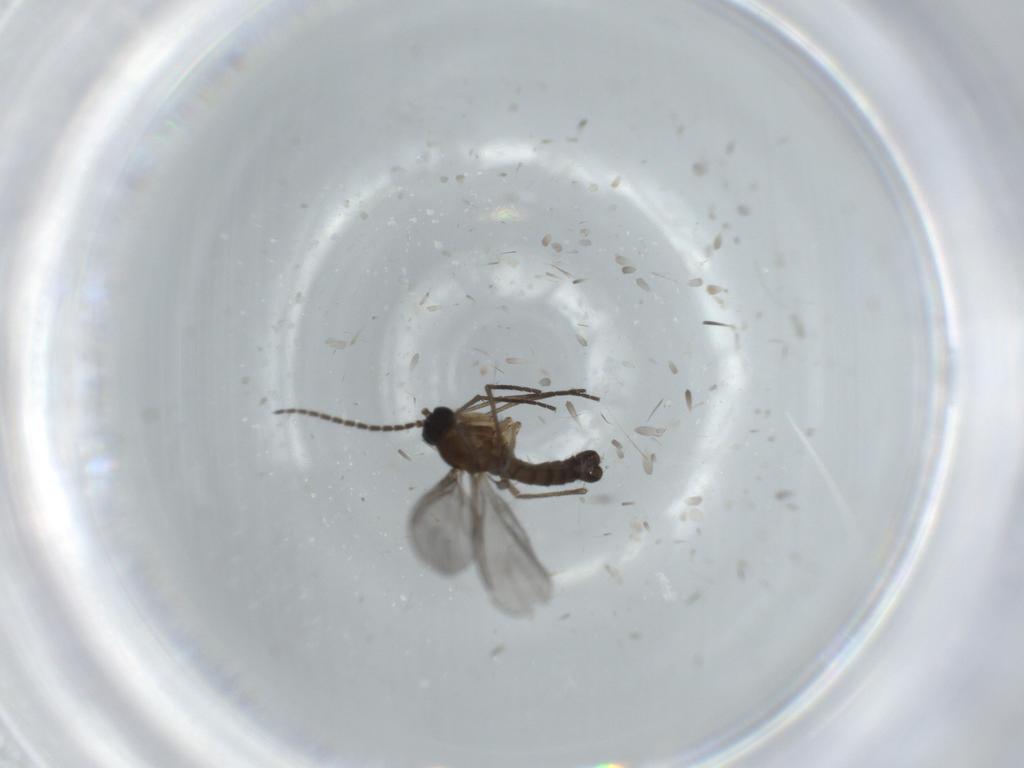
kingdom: Animalia
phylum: Arthropoda
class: Insecta
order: Diptera
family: Sciaridae
